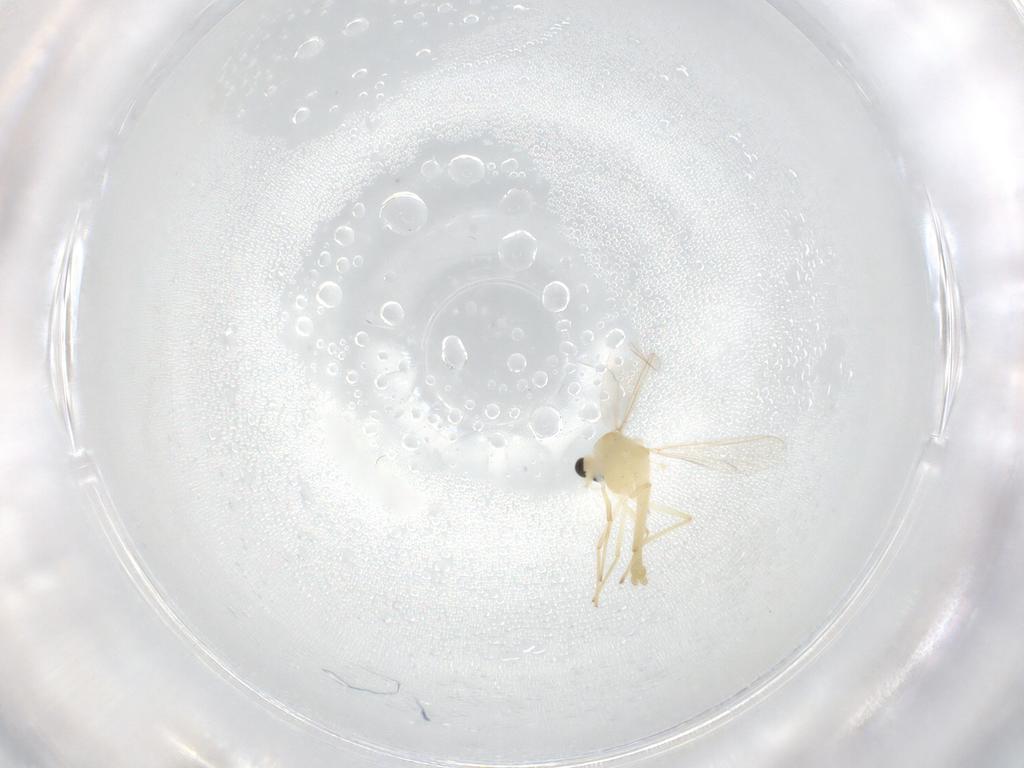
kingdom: Animalia
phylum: Arthropoda
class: Insecta
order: Diptera
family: Chironomidae
